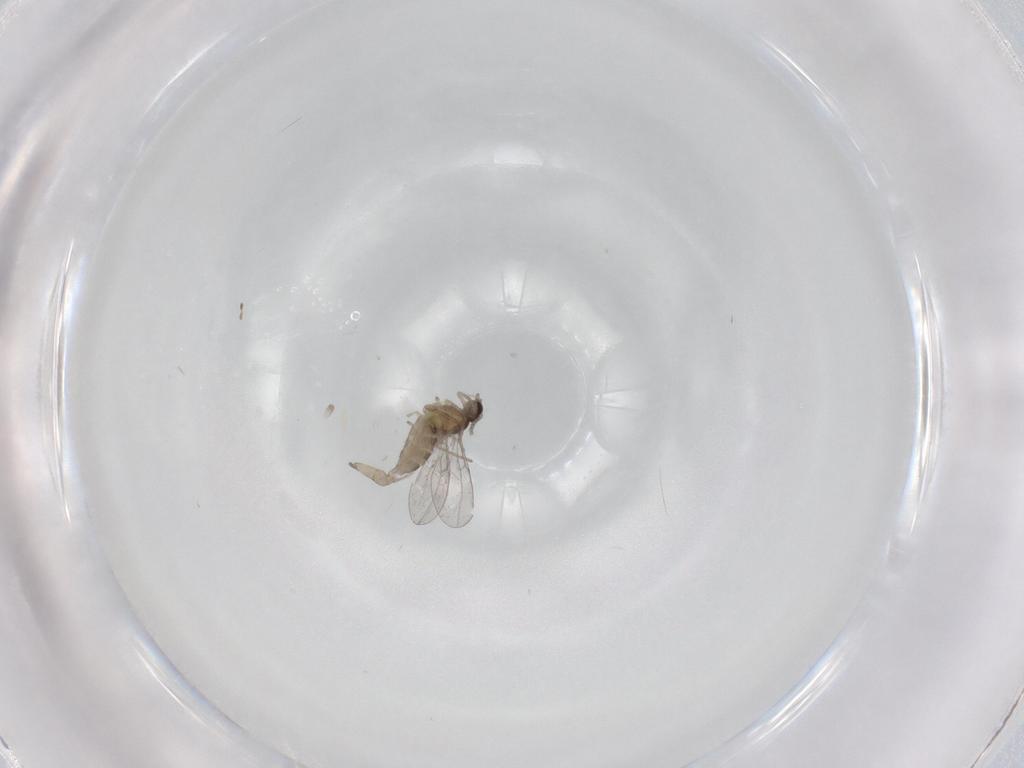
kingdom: Animalia
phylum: Arthropoda
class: Insecta
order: Diptera
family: Cecidomyiidae
